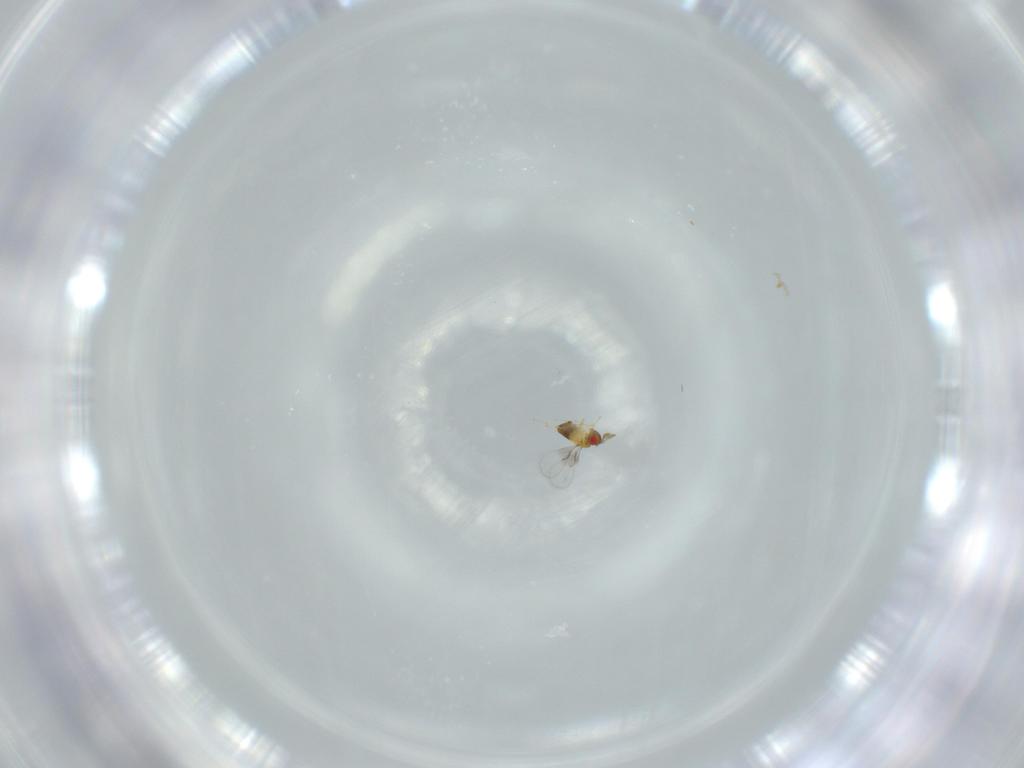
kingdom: Animalia
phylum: Arthropoda
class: Insecta
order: Hymenoptera
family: Trichogrammatidae
